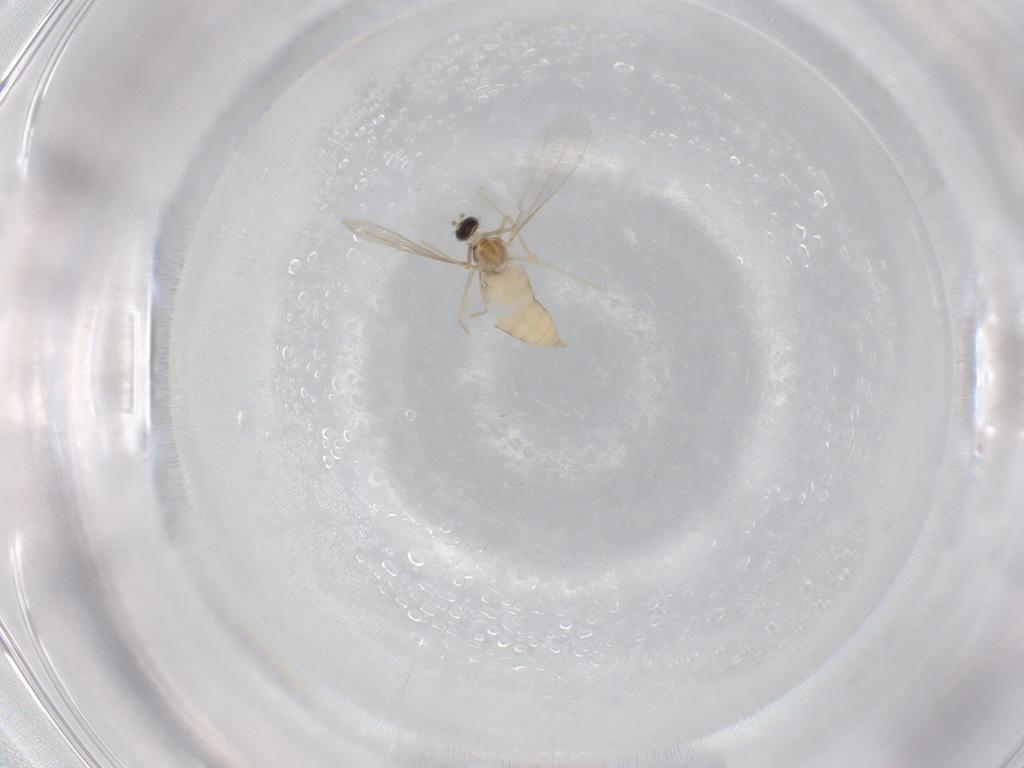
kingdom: Animalia
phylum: Arthropoda
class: Insecta
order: Diptera
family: Cecidomyiidae
